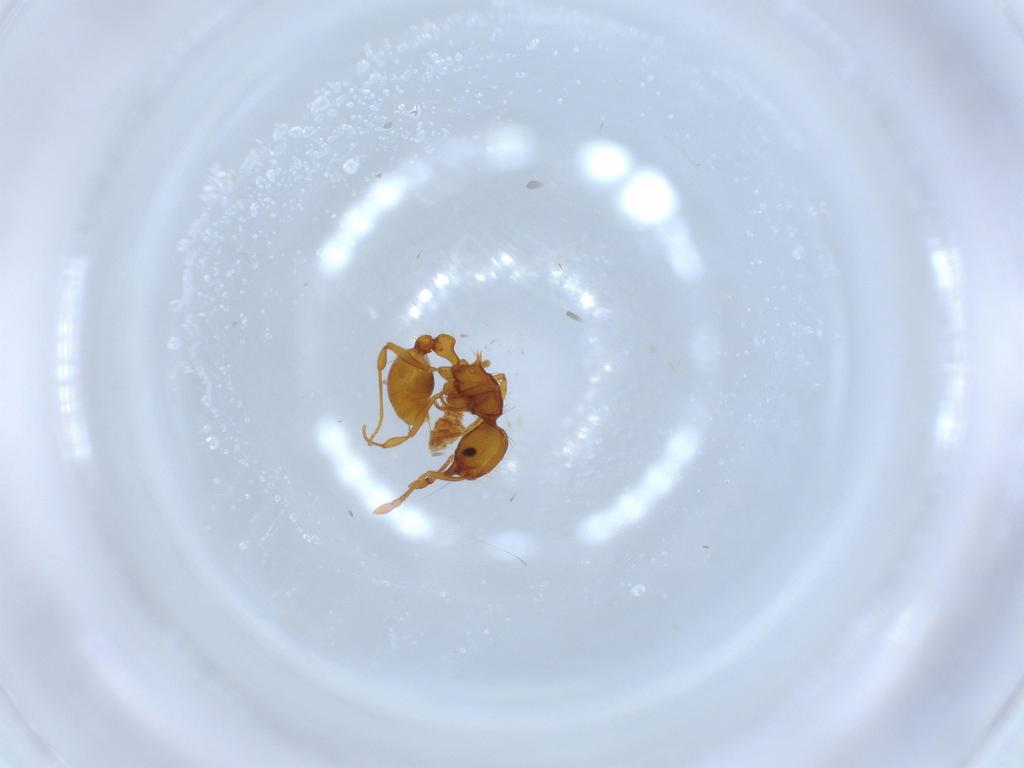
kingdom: Animalia
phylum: Arthropoda
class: Insecta
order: Hymenoptera
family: Formicidae
